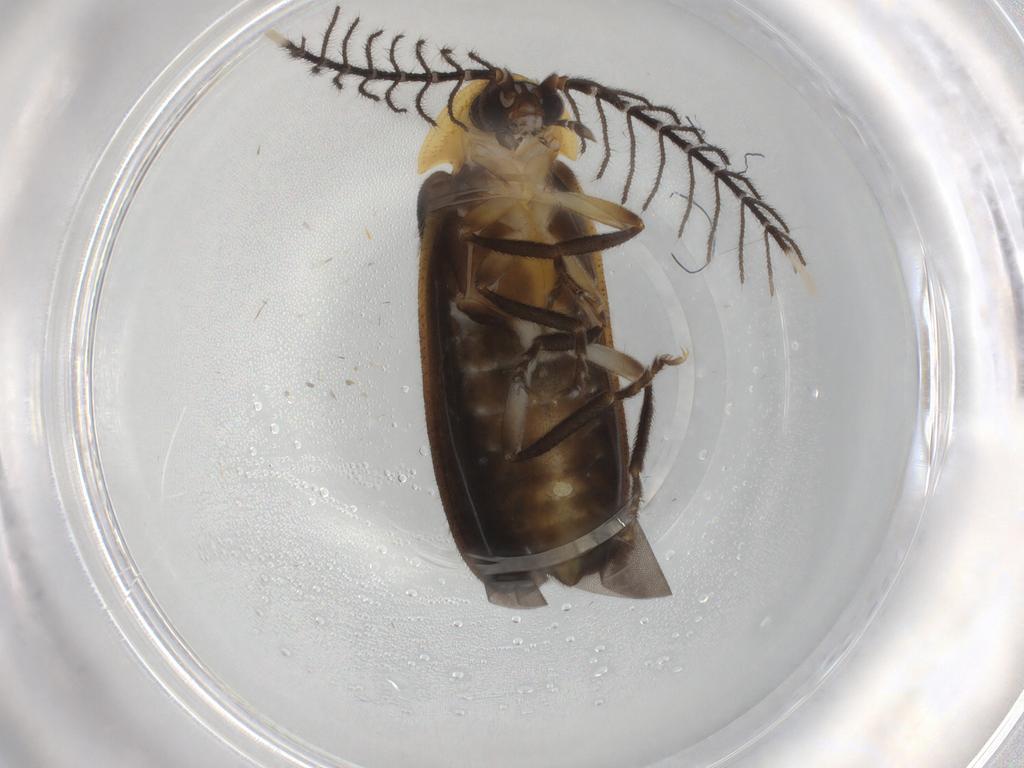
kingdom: Animalia
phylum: Arthropoda
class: Insecta
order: Coleoptera
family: Lampyridae
